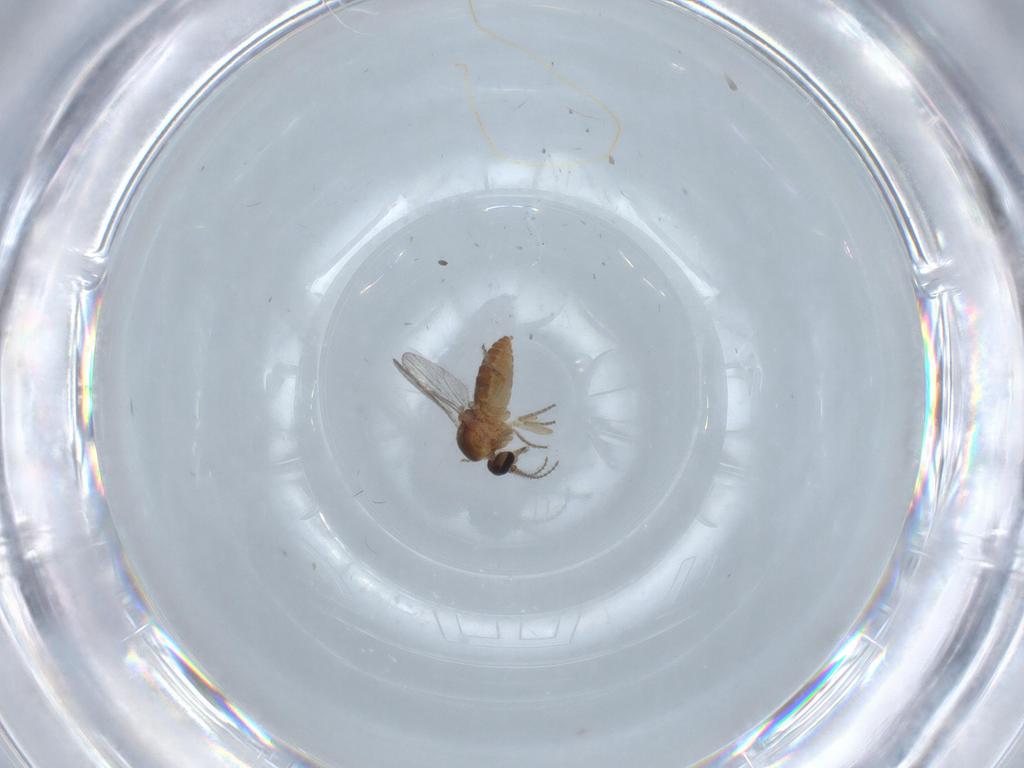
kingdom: Animalia
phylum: Arthropoda
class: Insecta
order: Diptera
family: Ceratopogonidae
